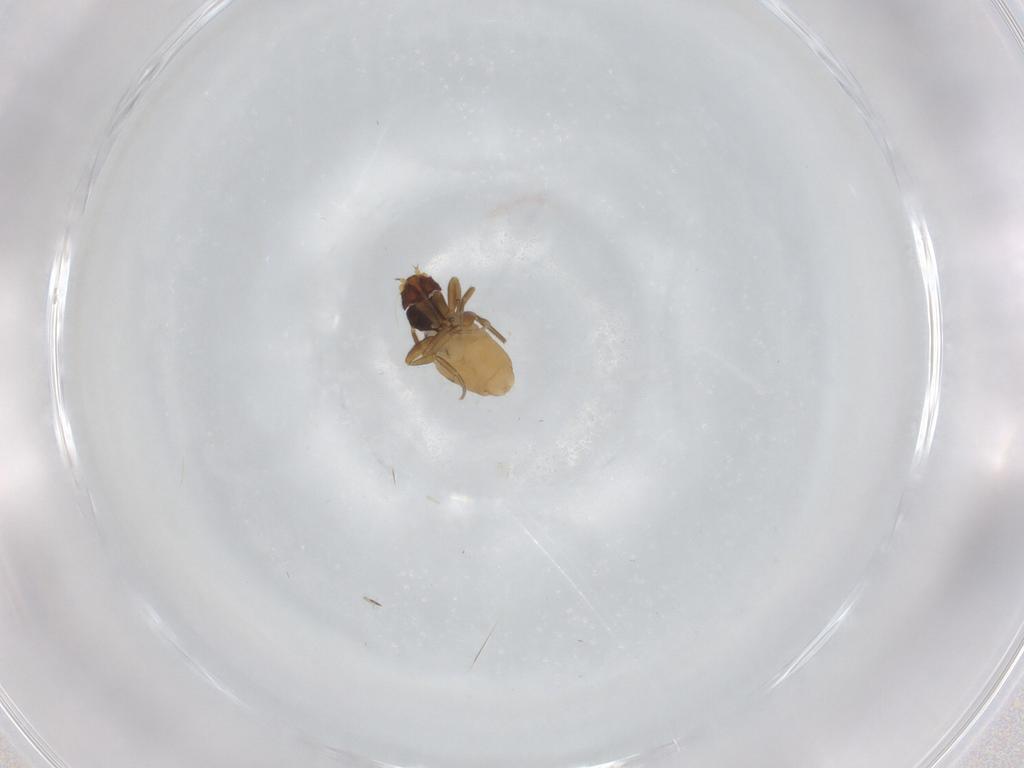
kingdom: Animalia
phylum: Arthropoda
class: Insecta
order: Diptera
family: Phoridae
